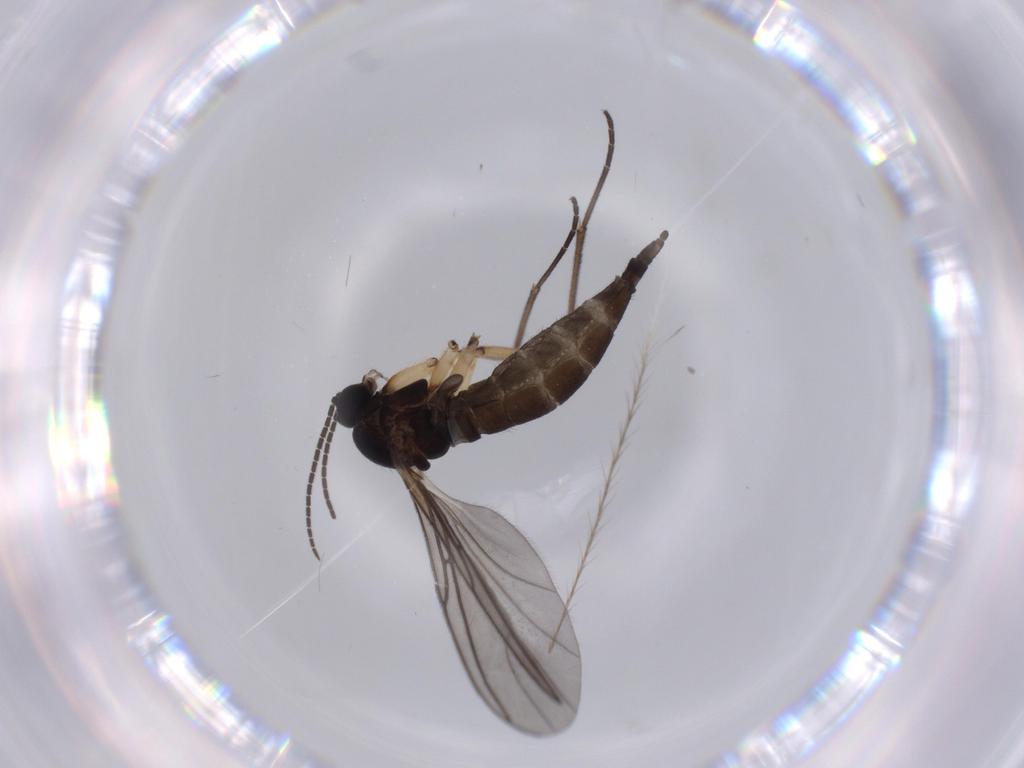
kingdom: Animalia
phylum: Arthropoda
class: Insecta
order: Diptera
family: Sciaridae
